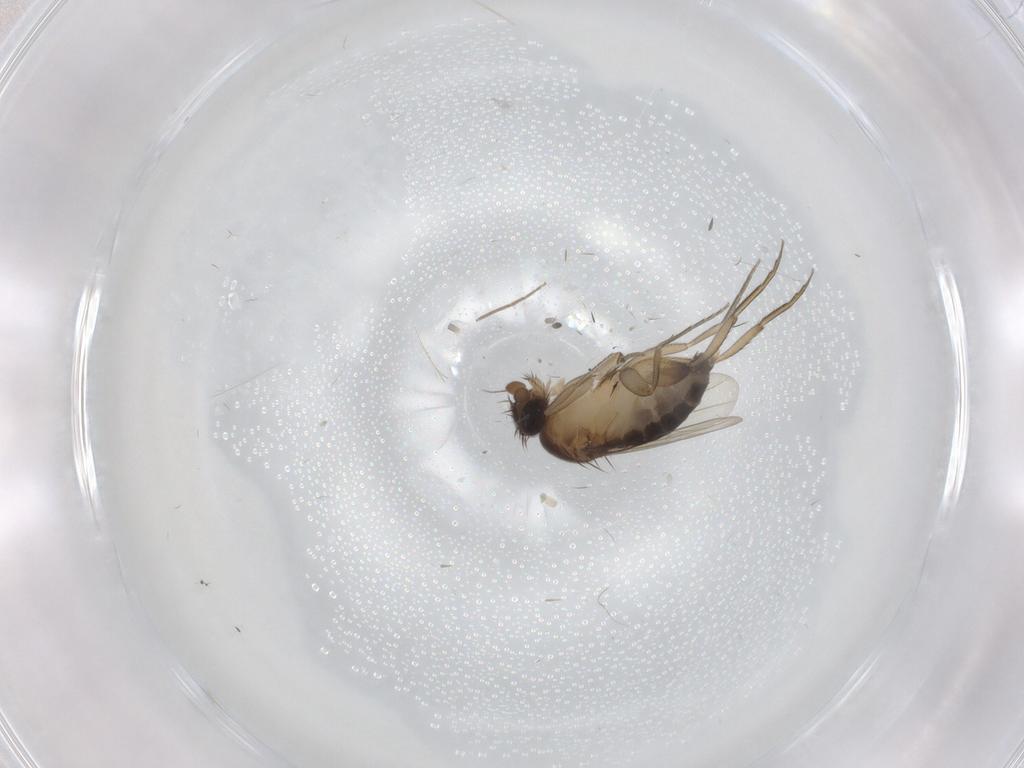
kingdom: Animalia
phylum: Arthropoda
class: Insecta
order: Diptera
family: Phoridae
